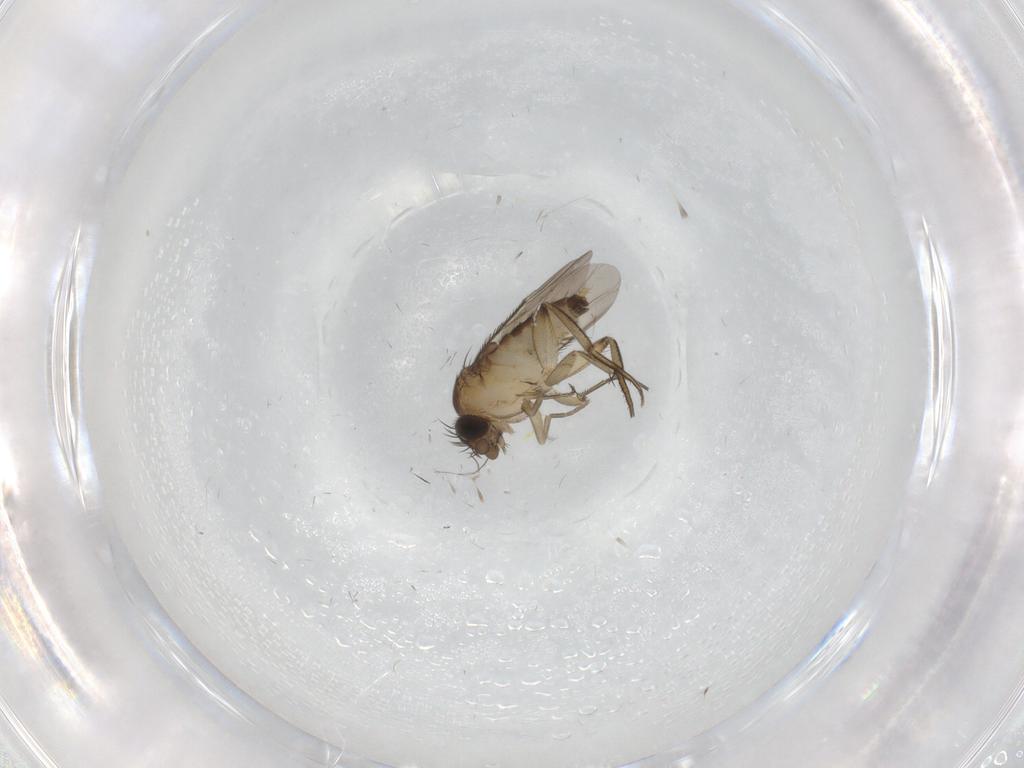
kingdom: Animalia
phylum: Arthropoda
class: Insecta
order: Diptera
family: Phoridae
